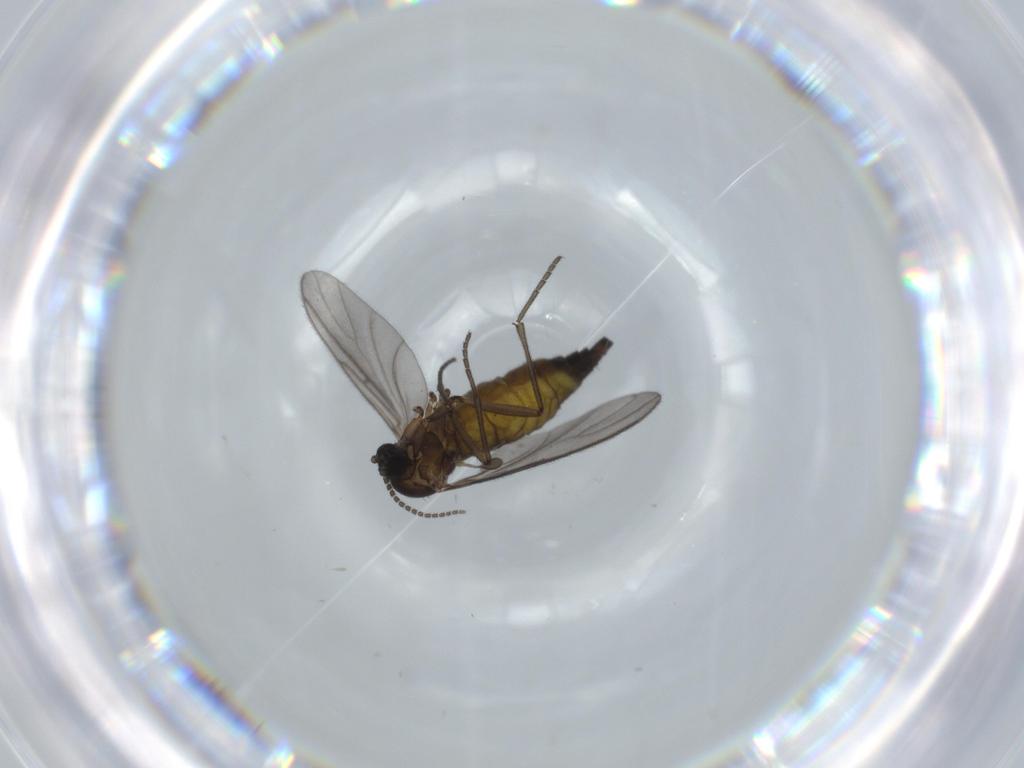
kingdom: Animalia
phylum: Arthropoda
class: Insecta
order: Diptera
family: Sciaridae
